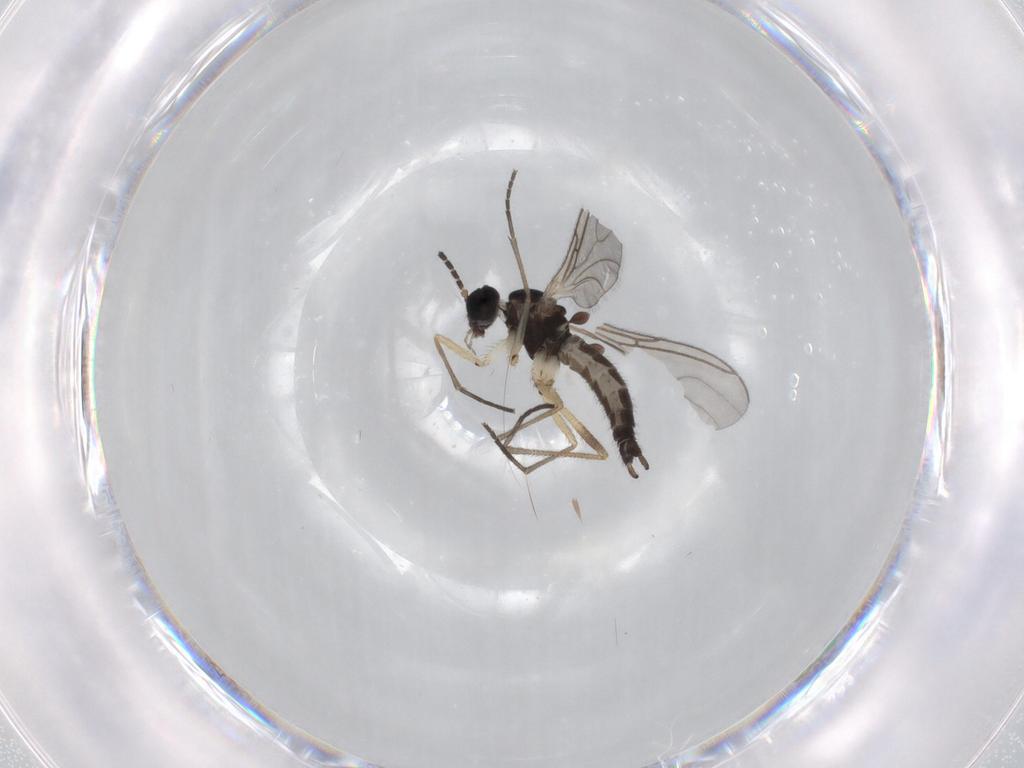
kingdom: Animalia
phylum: Arthropoda
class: Insecta
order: Diptera
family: Sciaridae
